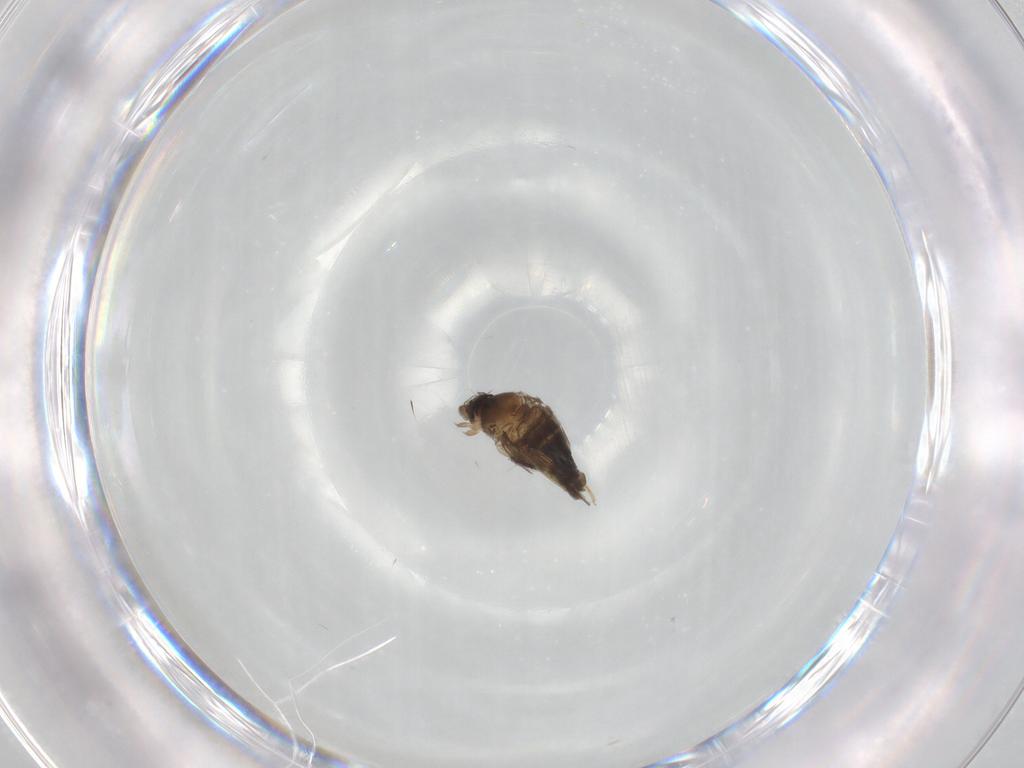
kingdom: Animalia
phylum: Arthropoda
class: Insecta
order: Diptera
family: Phoridae
